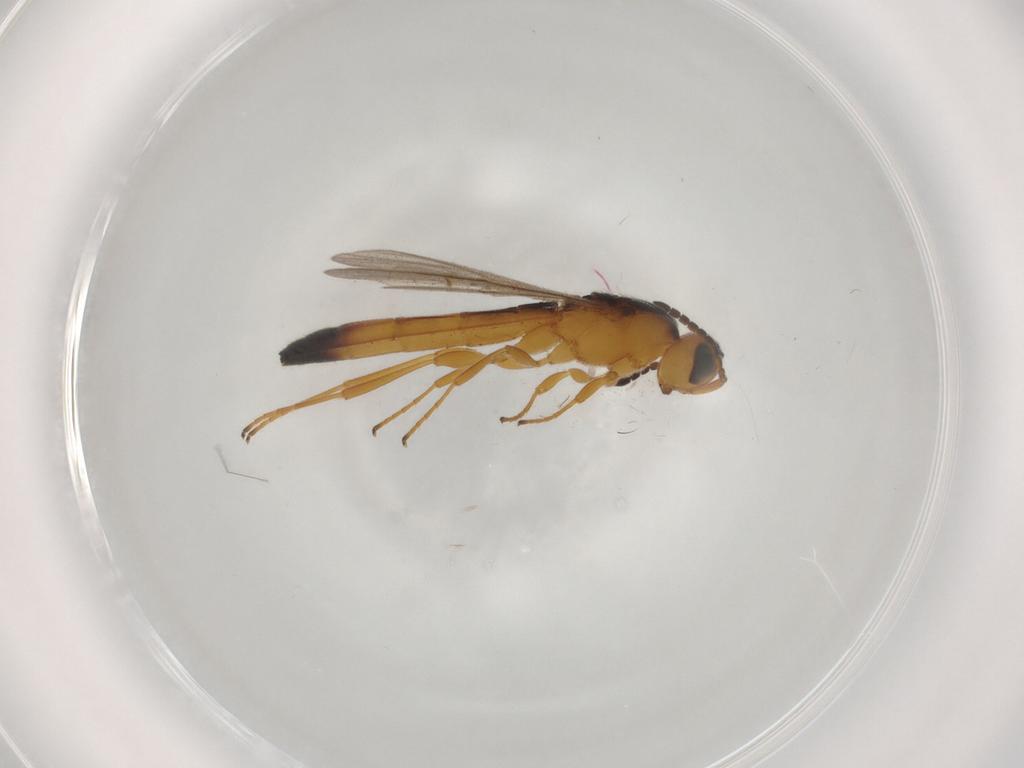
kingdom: Animalia
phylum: Arthropoda
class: Insecta
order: Hymenoptera
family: Scelionidae
